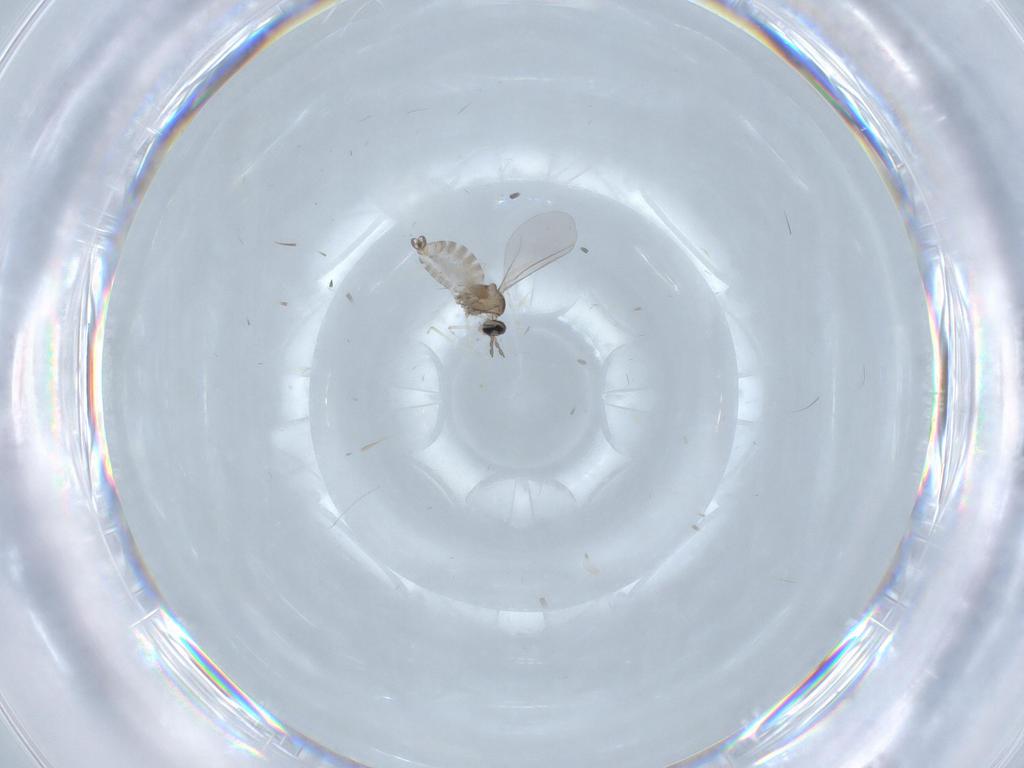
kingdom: Animalia
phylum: Arthropoda
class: Insecta
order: Diptera
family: Cecidomyiidae
